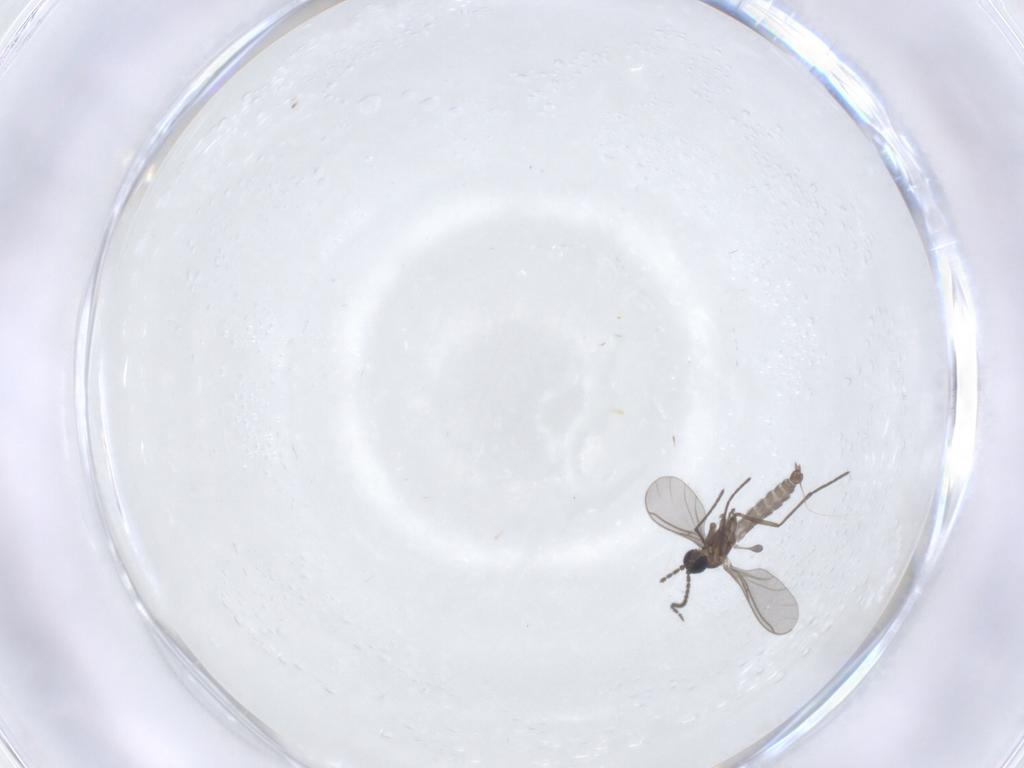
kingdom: Animalia
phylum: Arthropoda
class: Insecta
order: Diptera
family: Sciaridae
